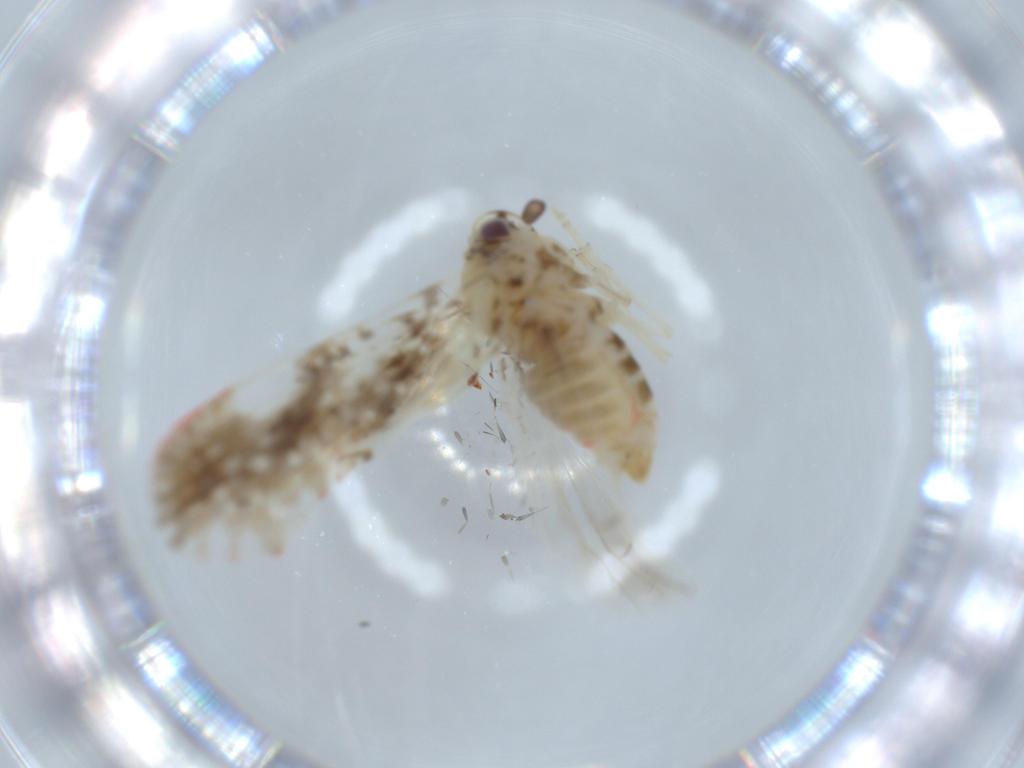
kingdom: Animalia
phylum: Arthropoda
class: Insecta
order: Hemiptera
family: Derbidae
